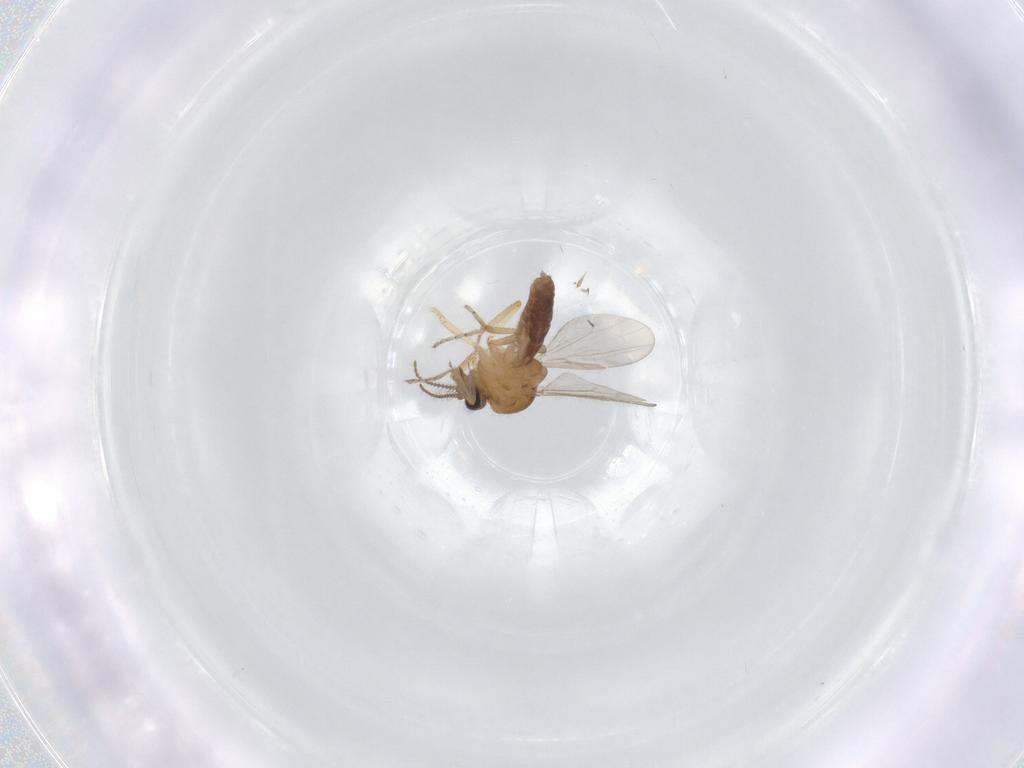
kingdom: Animalia
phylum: Arthropoda
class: Insecta
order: Diptera
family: Ceratopogonidae
